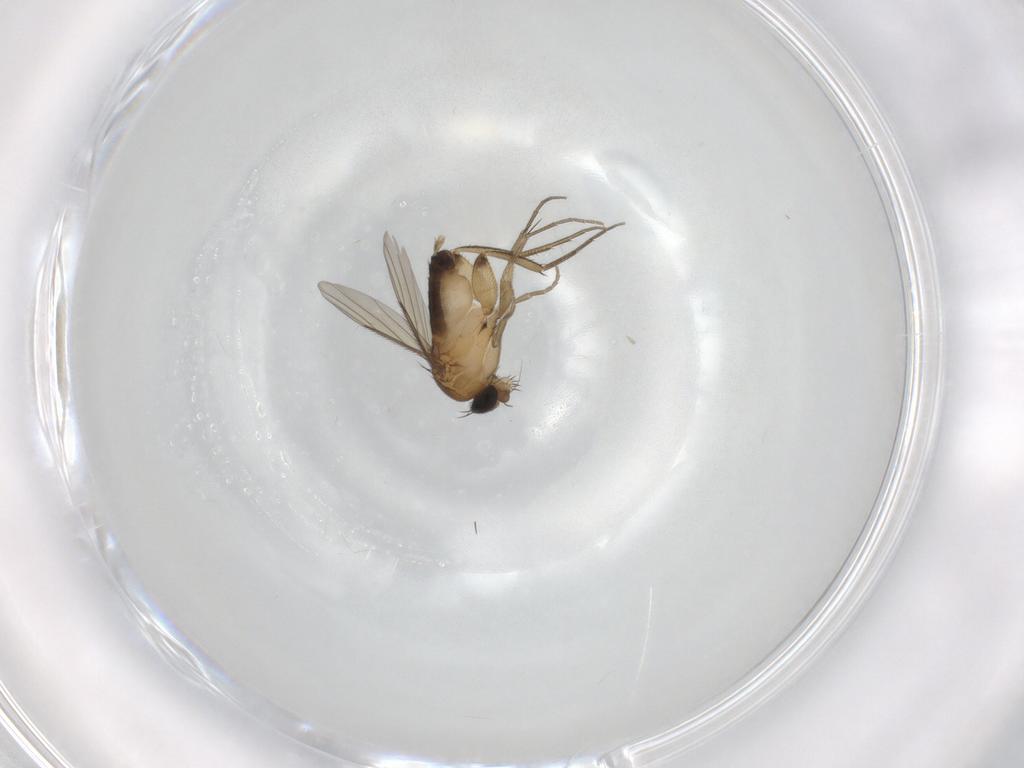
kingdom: Animalia
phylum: Arthropoda
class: Insecta
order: Diptera
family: Phoridae
